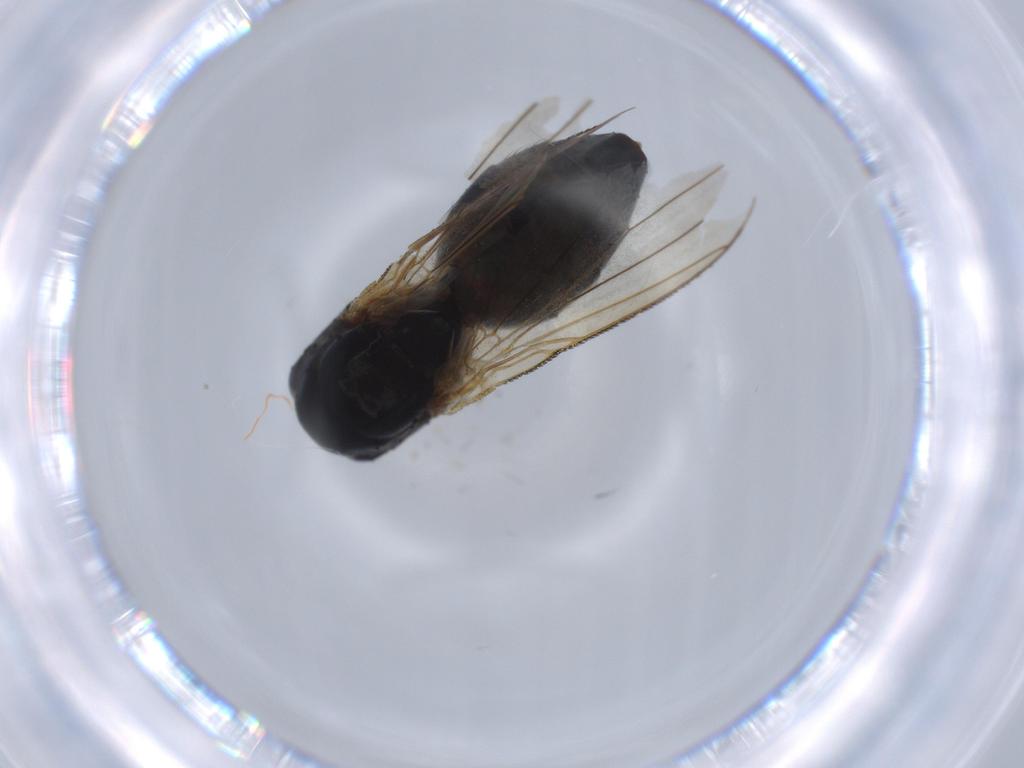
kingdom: Animalia
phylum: Arthropoda
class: Insecta
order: Diptera
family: Muscidae
